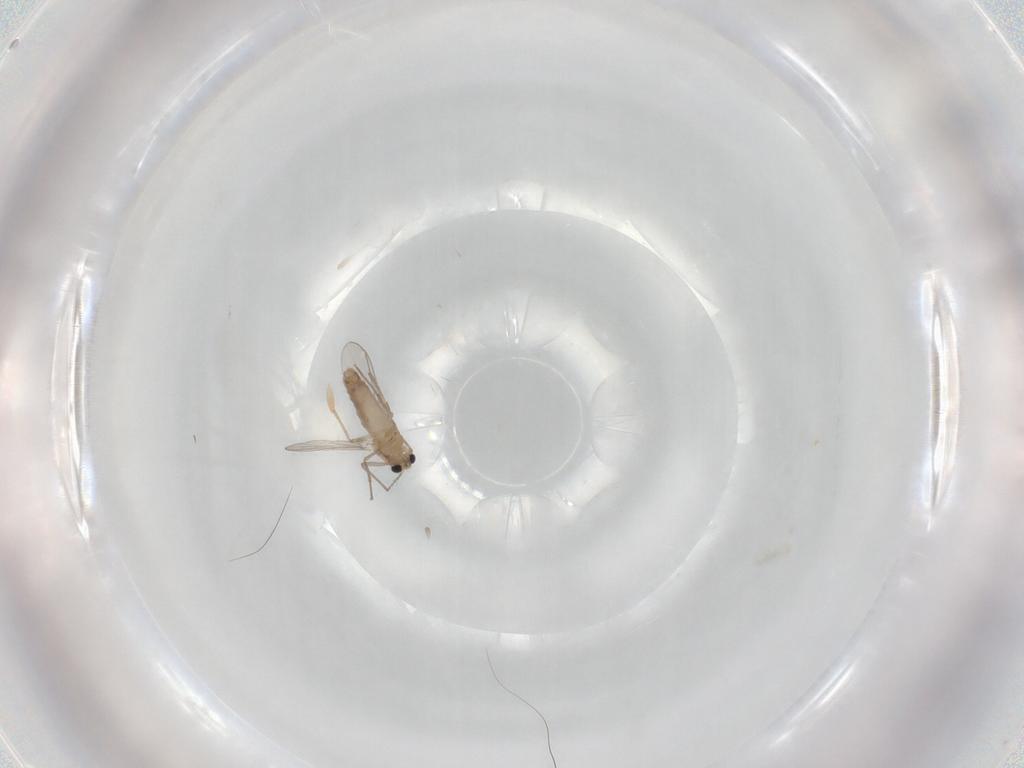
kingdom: Animalia
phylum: Arthropoda
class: Insecta
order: Diptera
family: Chironomidae
